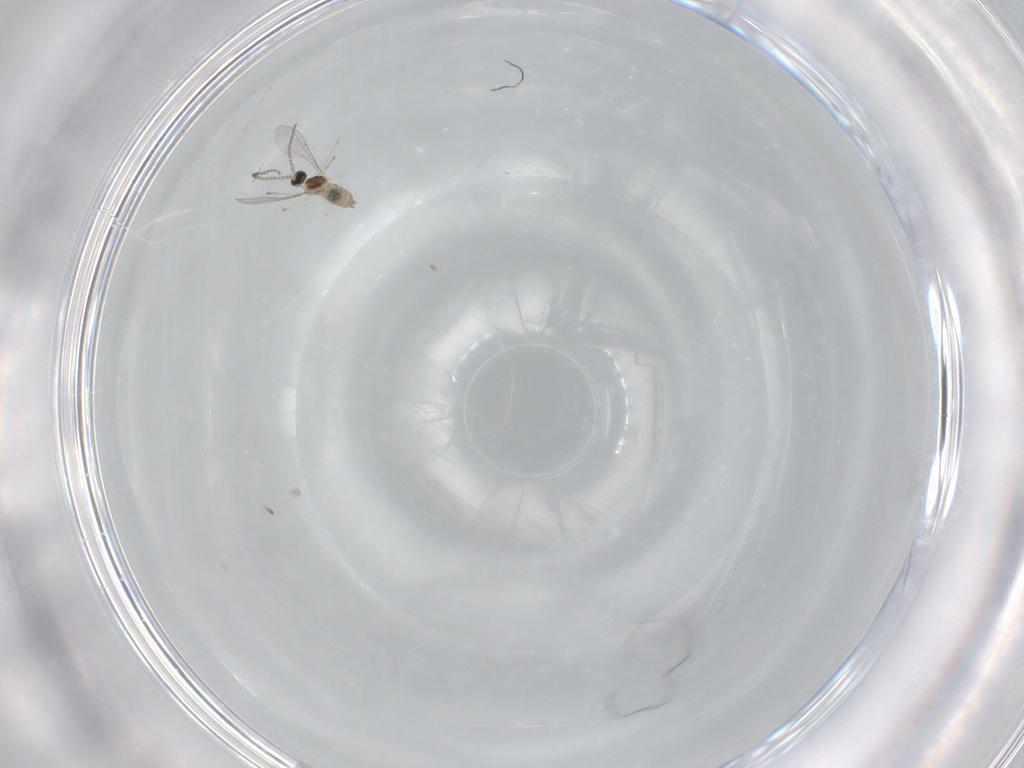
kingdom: Animalia
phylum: Arthropoda
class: Insecta
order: Diptera
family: Cecidomyiidae
